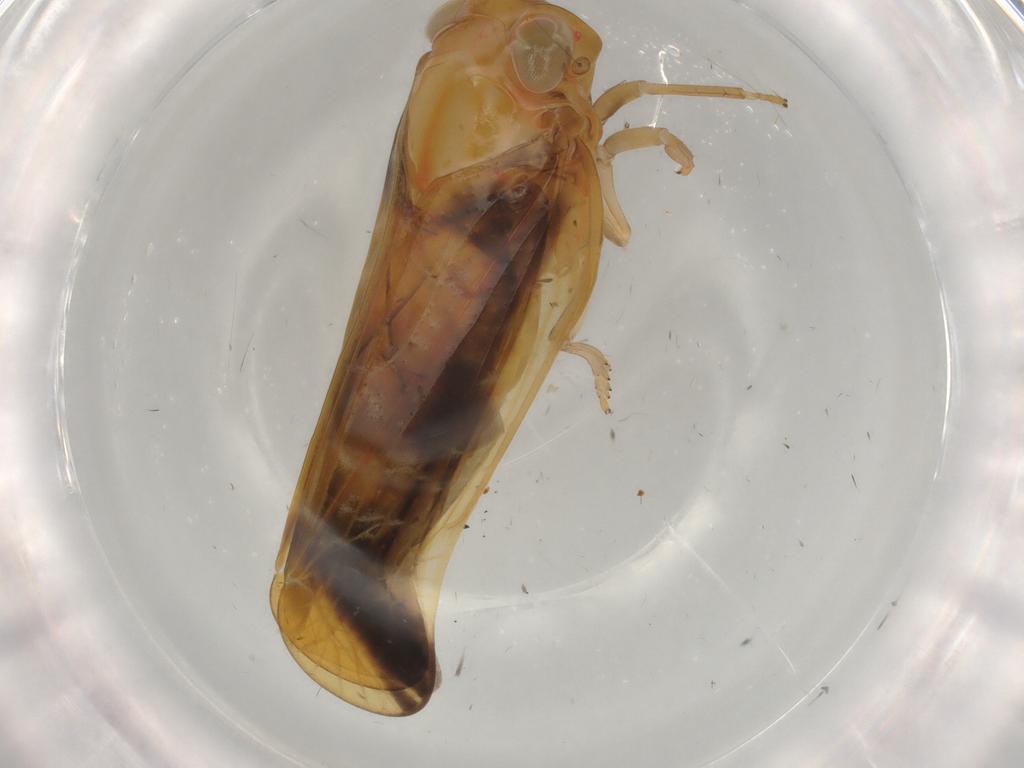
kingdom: Animalia
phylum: Arthropoda
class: Insecta
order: Hemiptera
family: Nogodinidae
